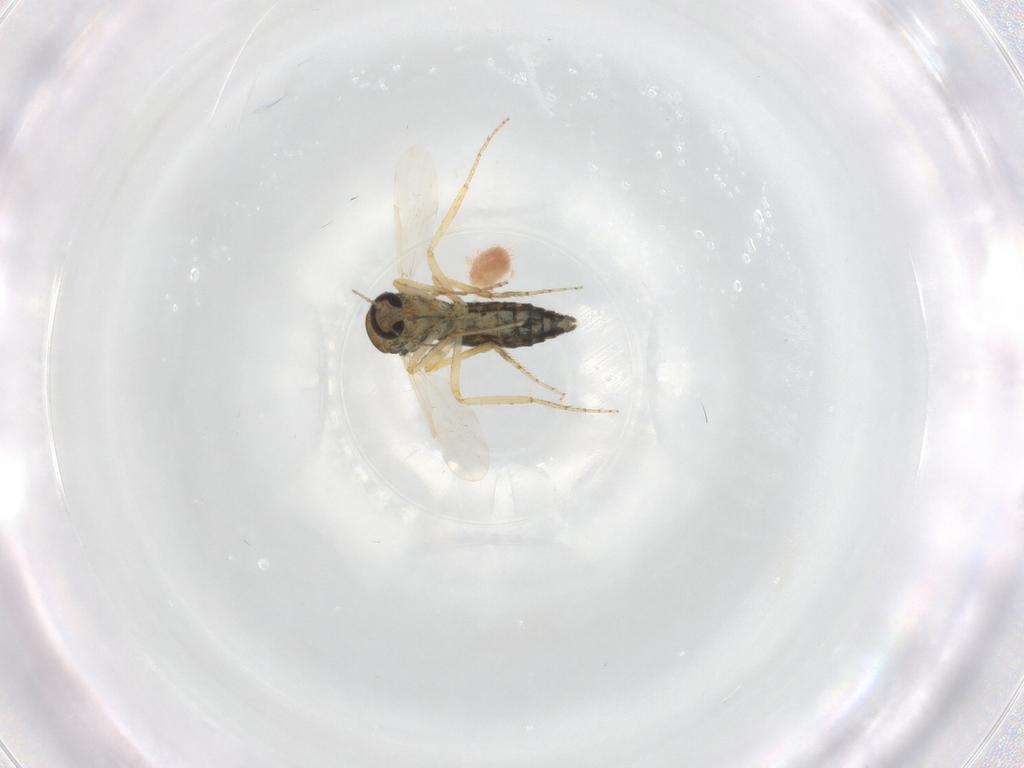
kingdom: Animalia
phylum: Arthropoda
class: Insecta
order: Diptera
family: Ceratopogonidae
